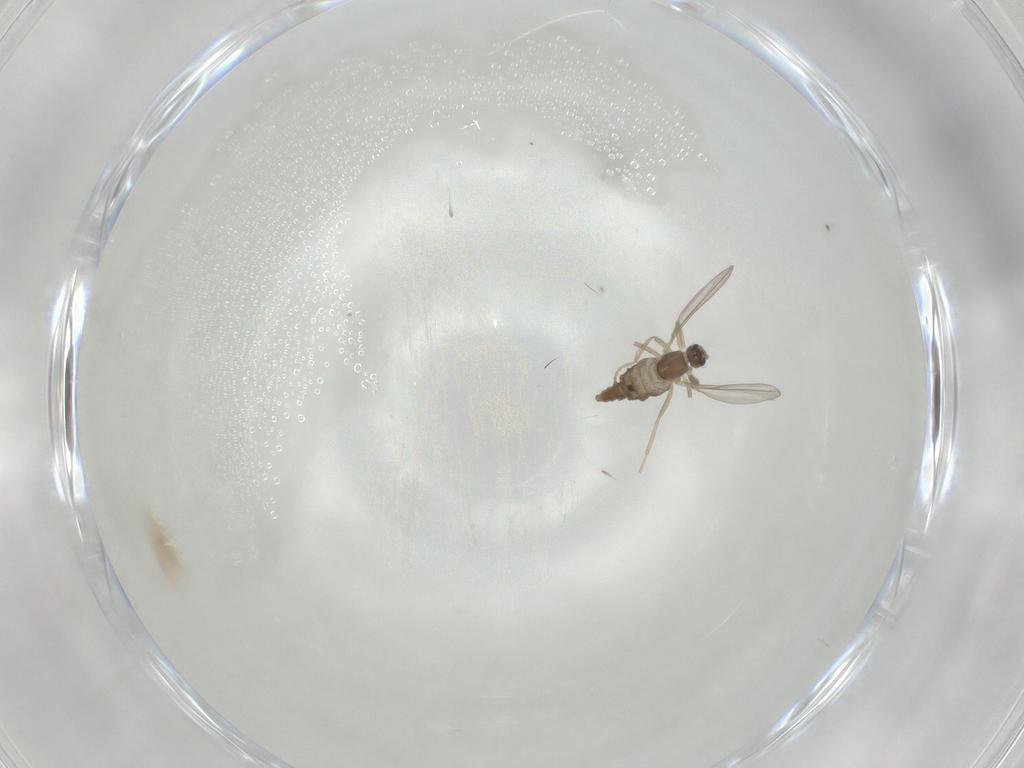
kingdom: Animalia
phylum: Arthropoda
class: Insecta
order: Diptera
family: Cecidomyiidae
